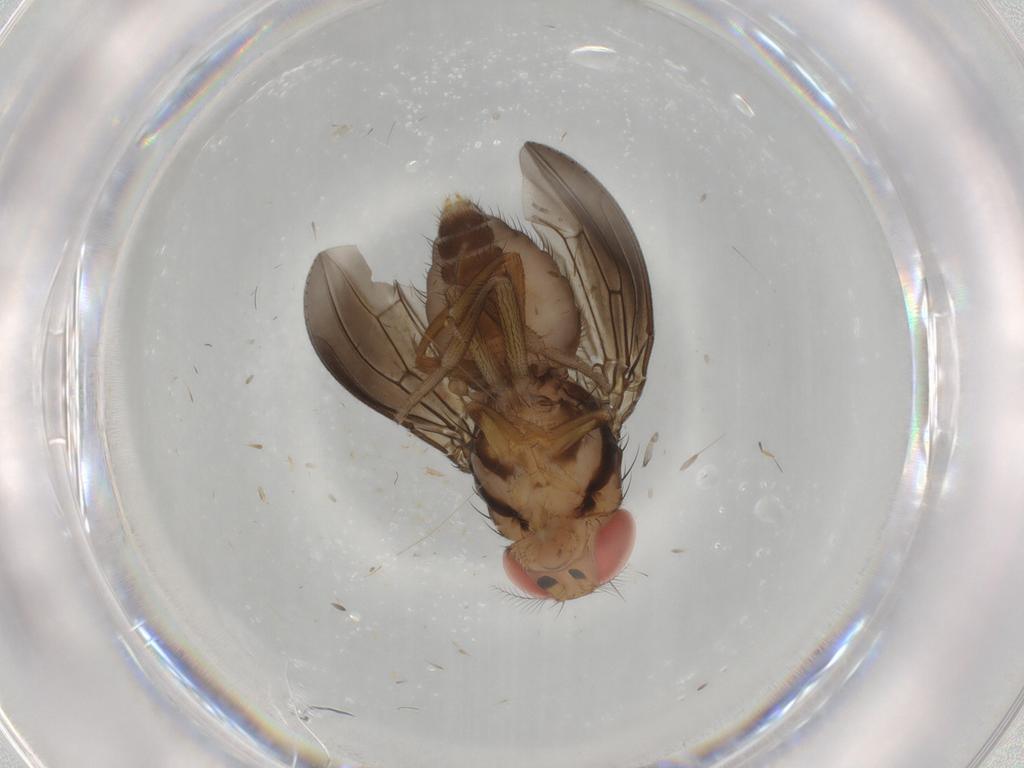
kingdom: Animalia
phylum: Arthropoda
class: Insecta
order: Diptera
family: Drosophilidae
